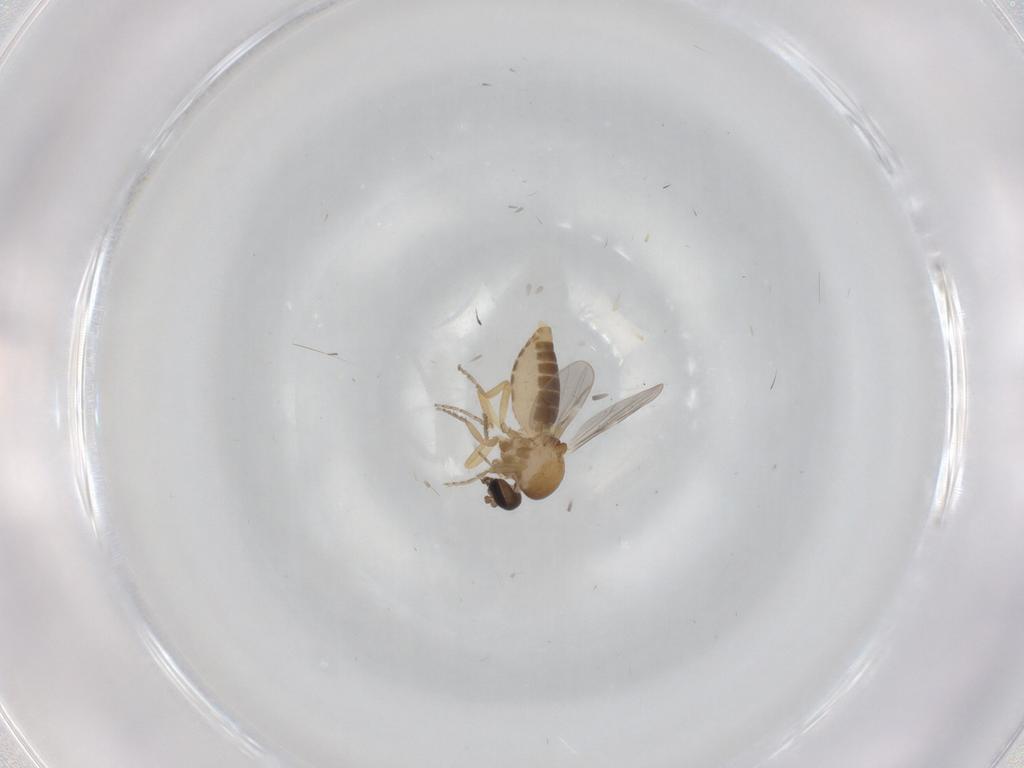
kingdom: Animalia
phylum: Arthropoda
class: Insecta
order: Diptera
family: Ceratopogonidae
